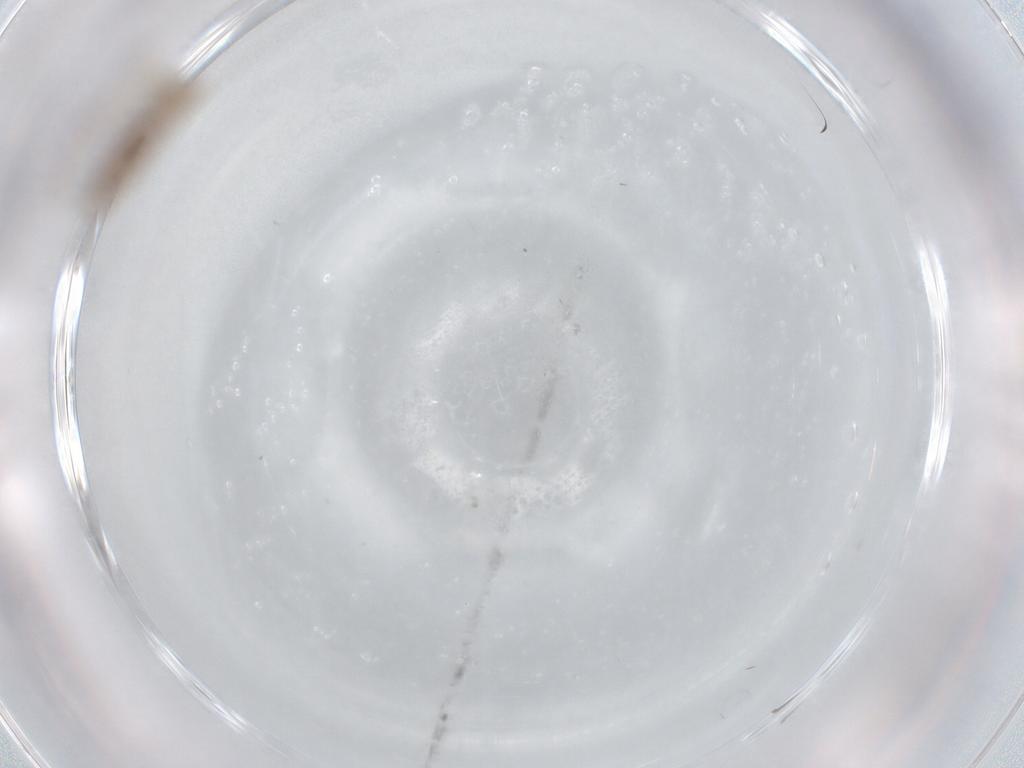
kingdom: Animalia
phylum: Arthropoda
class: Insecta
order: Diptera
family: Cecidomyiidae
